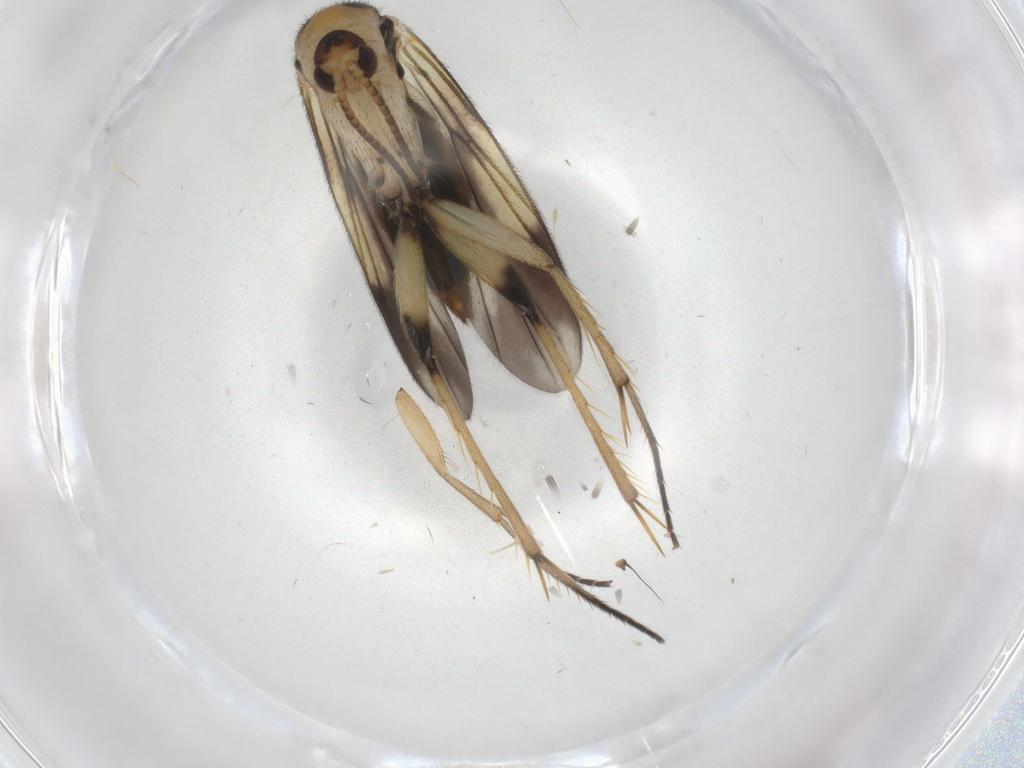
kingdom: Animalia
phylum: Arthropoda
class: Insecta
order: Diptera
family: Mycetophilidae
